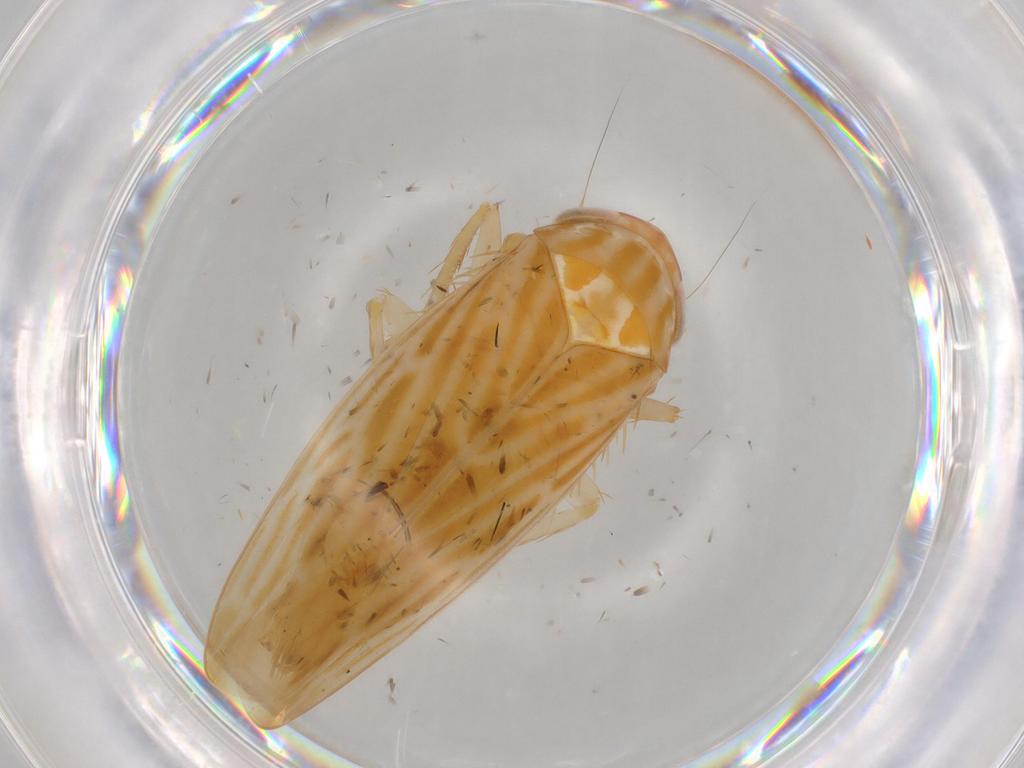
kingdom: Animalia
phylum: Arthropoda
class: Insecta
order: Hemiptera
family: Cicadellidae
